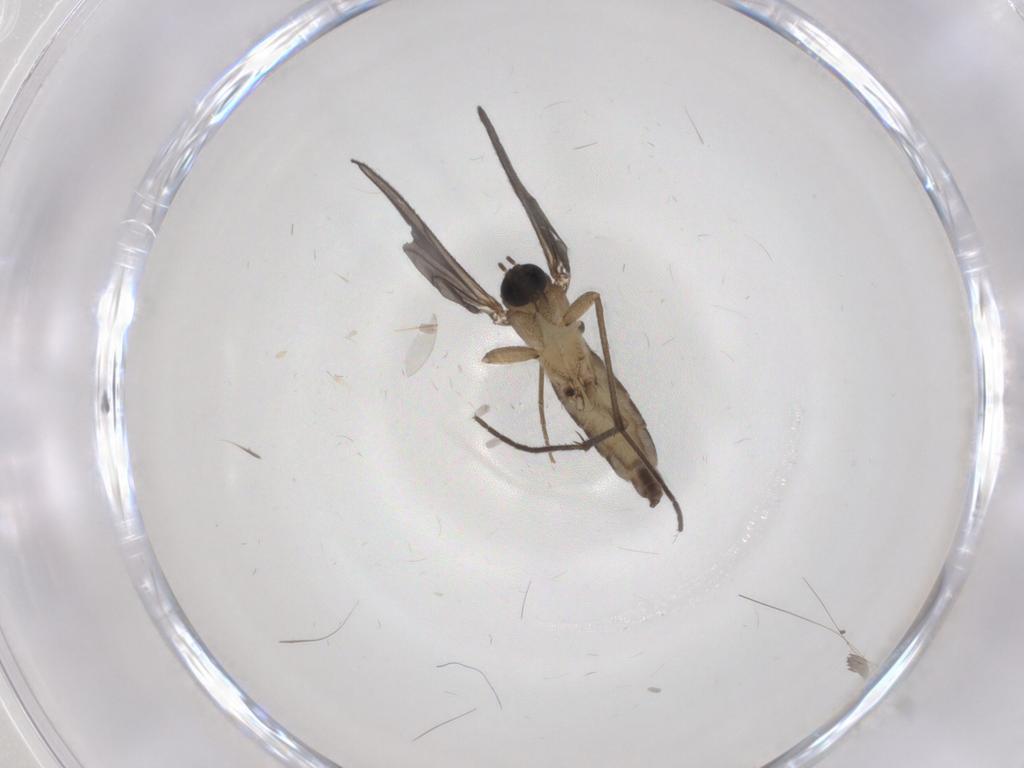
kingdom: Animalia
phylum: Arthropoda
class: Insecta
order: Diptera
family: Sciaridae
